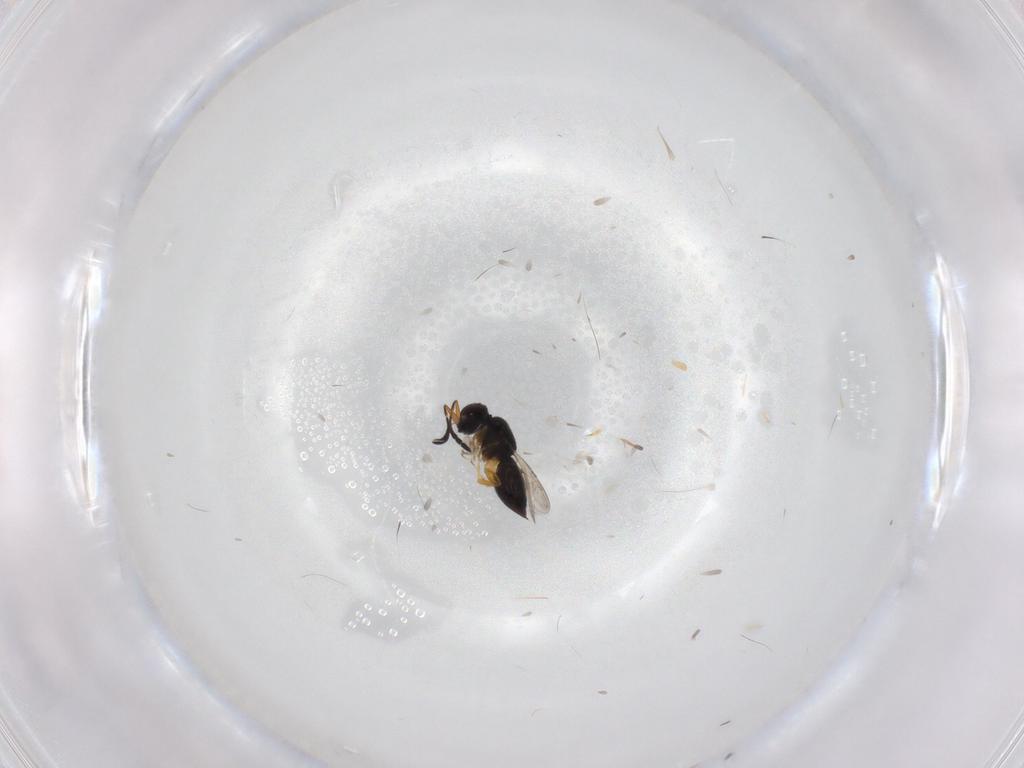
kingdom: Animalia
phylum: Arthropoda
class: Insecta
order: Hymenoptera
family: Ceraphronidae
